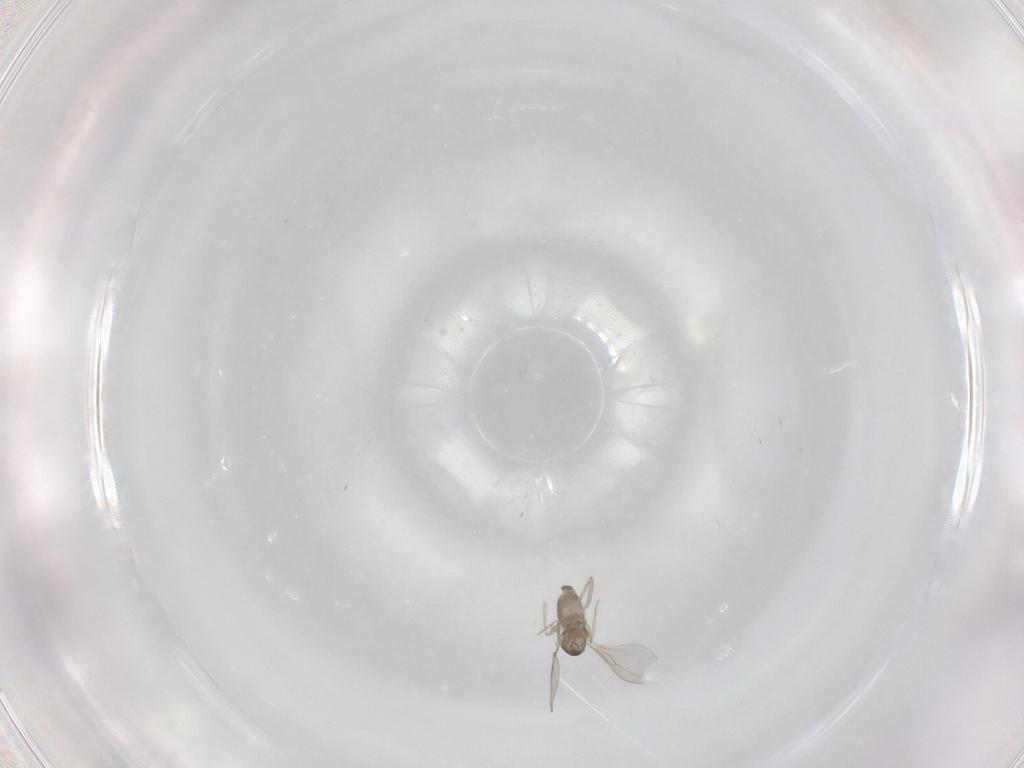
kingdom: Animalia
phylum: Arthropoda
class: Insecta
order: Diptera
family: Cecidomyiidae
